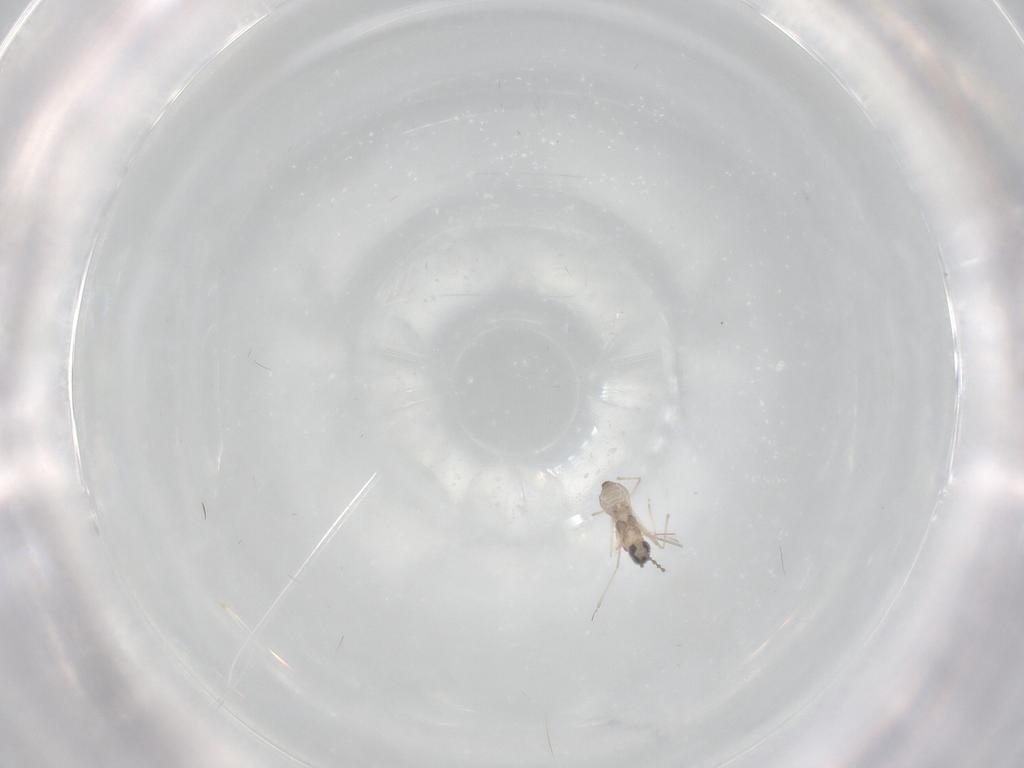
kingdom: Animalia
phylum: Arthropoda
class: Insecta
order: Diptera
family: Cecidomyiidae
